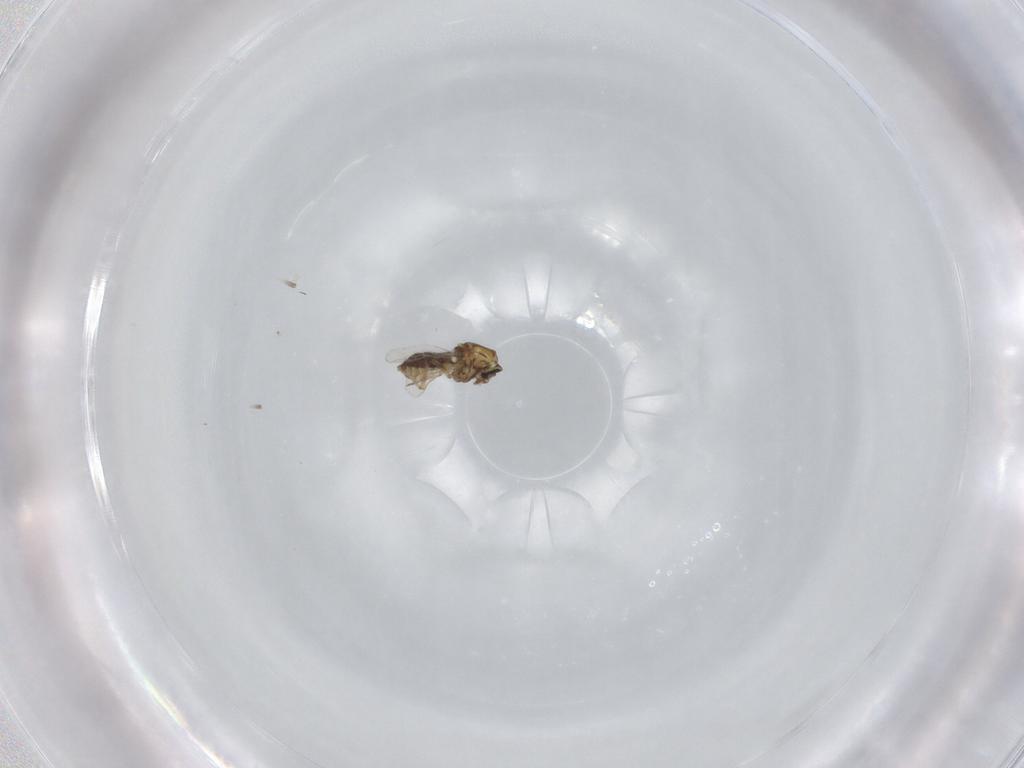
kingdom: Animalia
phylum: Arthropoda
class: Insecta
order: Diptera
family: Ceratopogonidae
